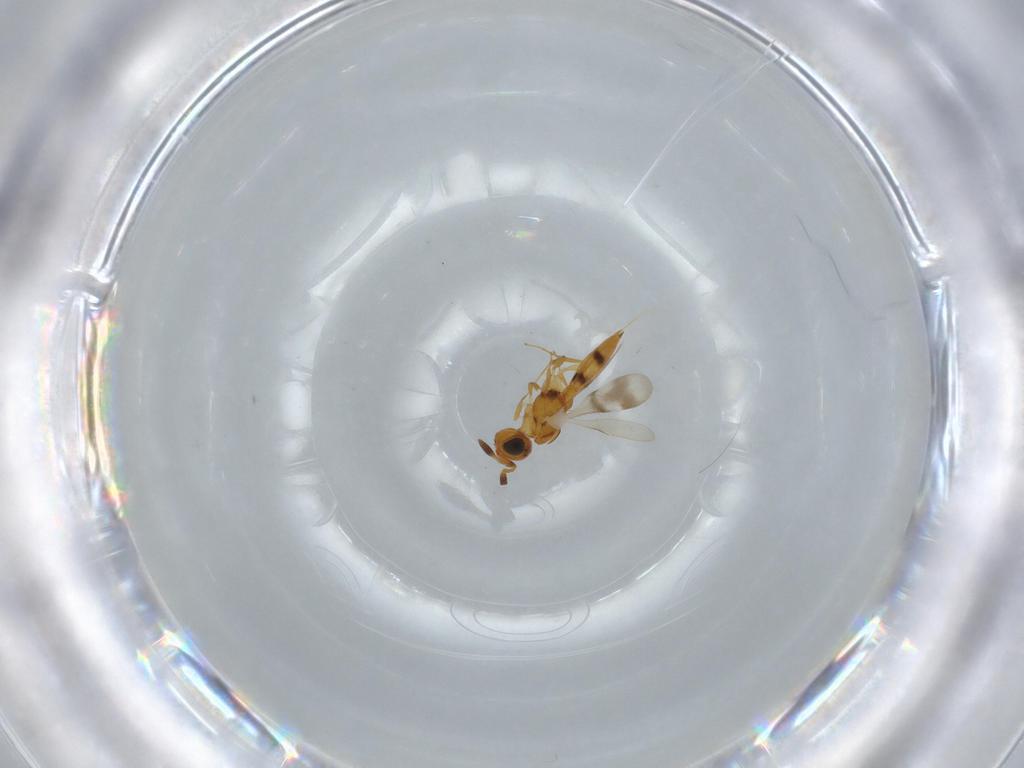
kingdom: Animalia
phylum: Arthropoda
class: Insecta
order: Hymenoptera
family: Scelionidae
